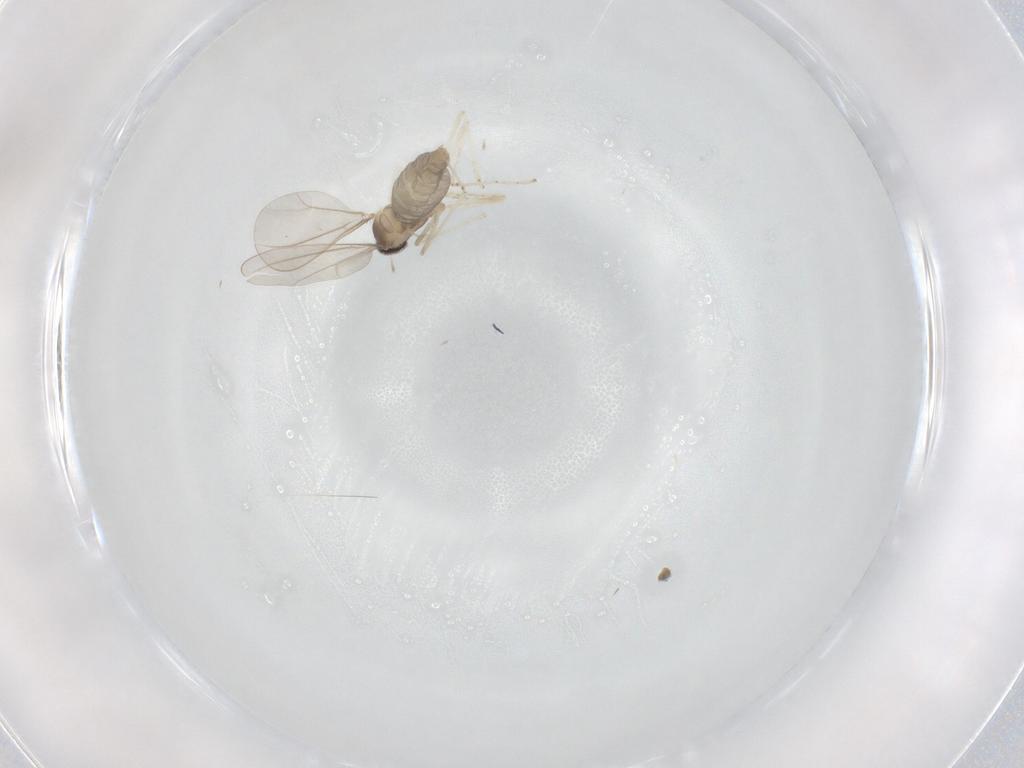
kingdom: Animalia
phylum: Arthropoda
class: Insecta
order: Diptera
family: Cecidomyiidae
